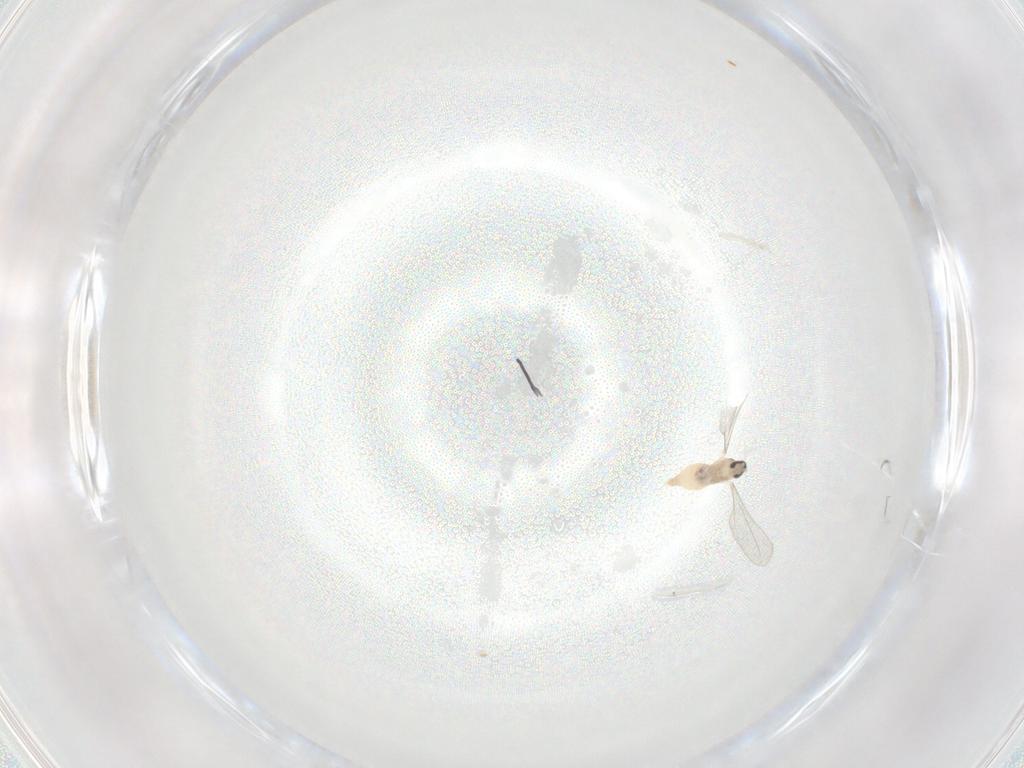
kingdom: Animalia
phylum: Arthropoda
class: Insecta
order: Diptera
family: Cecidomyiidae
